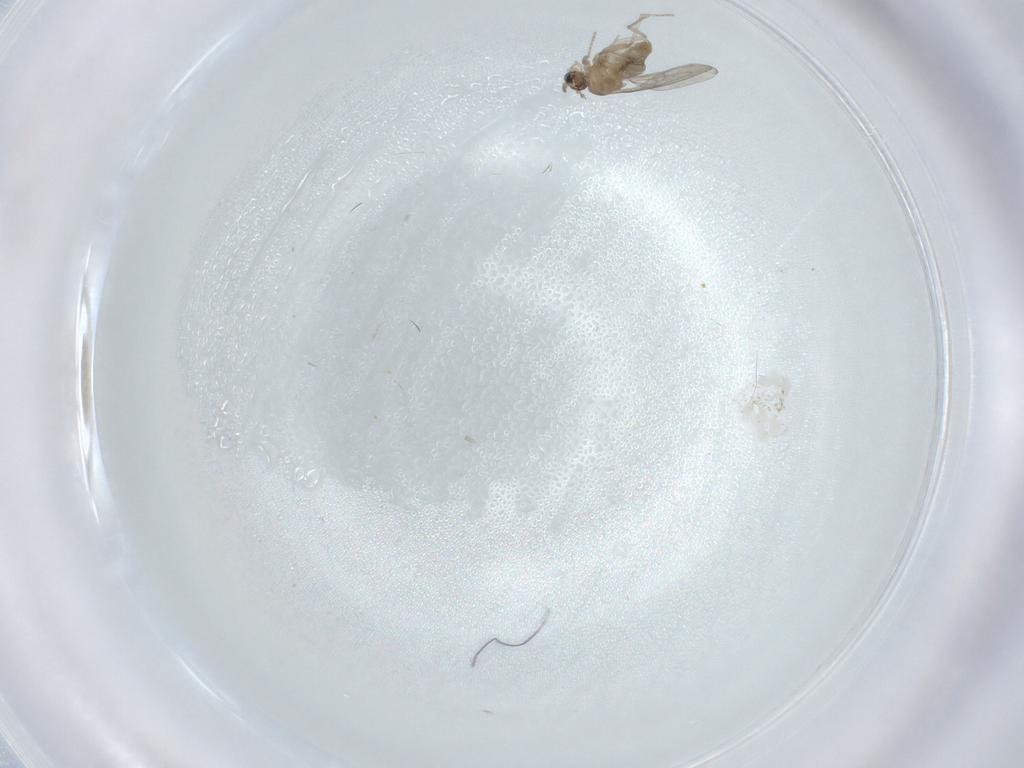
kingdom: Animalia
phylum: Arthropoda
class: Insecta
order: Diptera
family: Chironomidae
